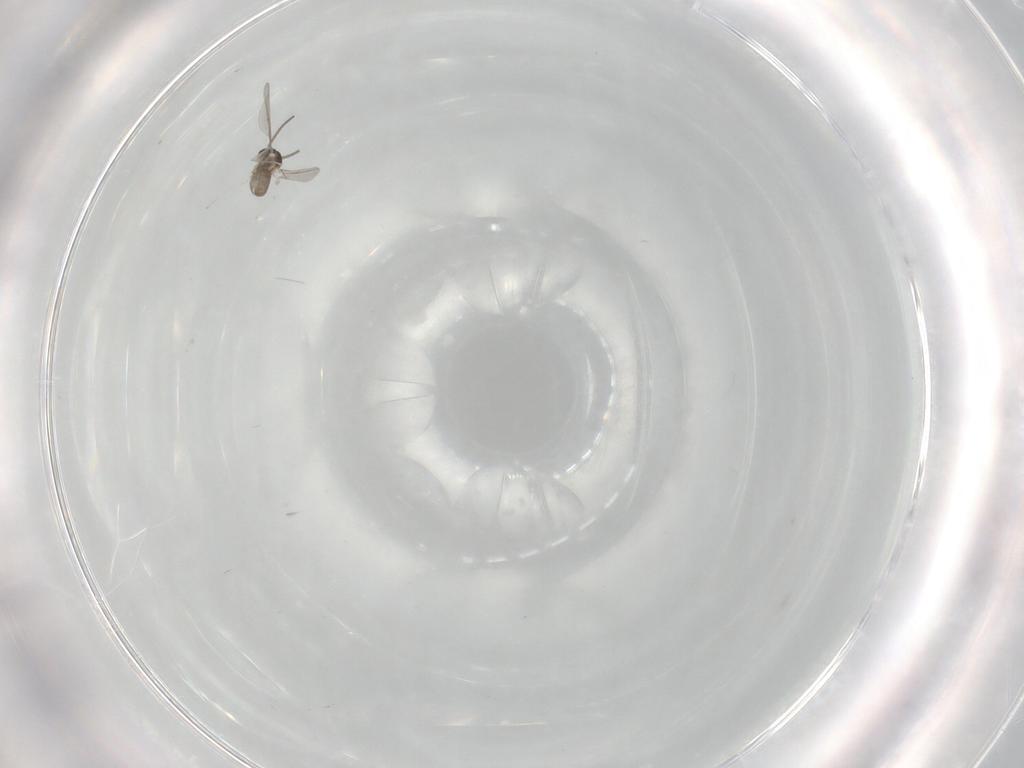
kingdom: Animalia
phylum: Arthropoda
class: Insecta
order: Diptera
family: Cecidomyiidae
